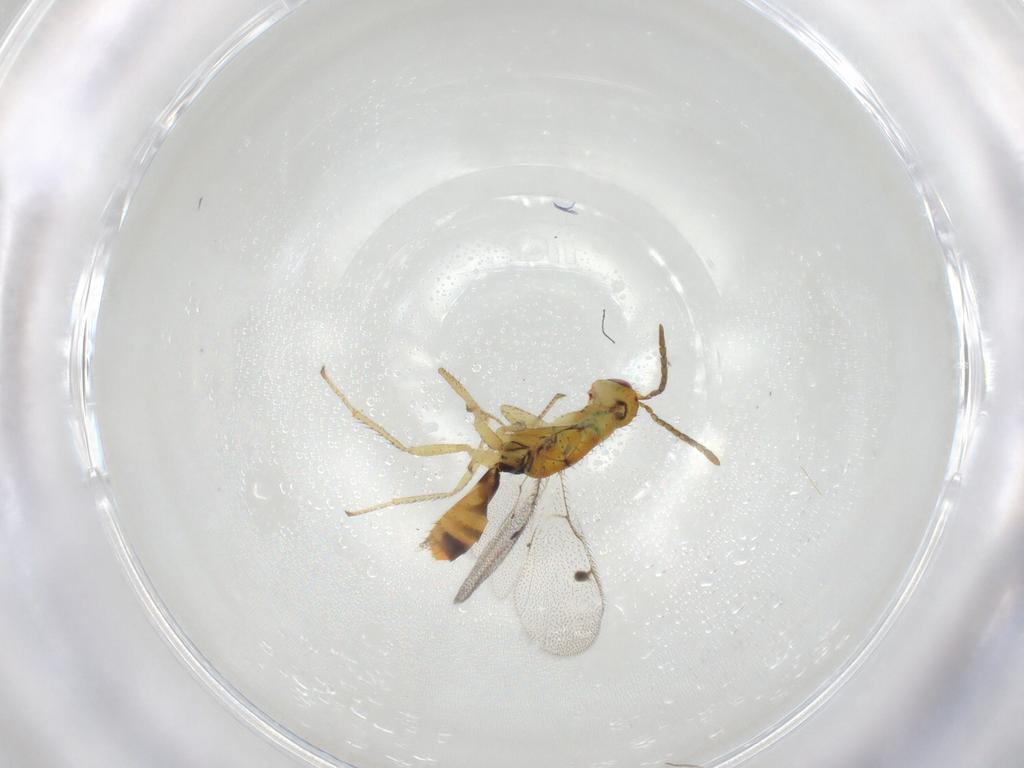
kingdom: Animalia
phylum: Arthropoda
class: Insecta
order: Hymenoptera
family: Megastigmidae
